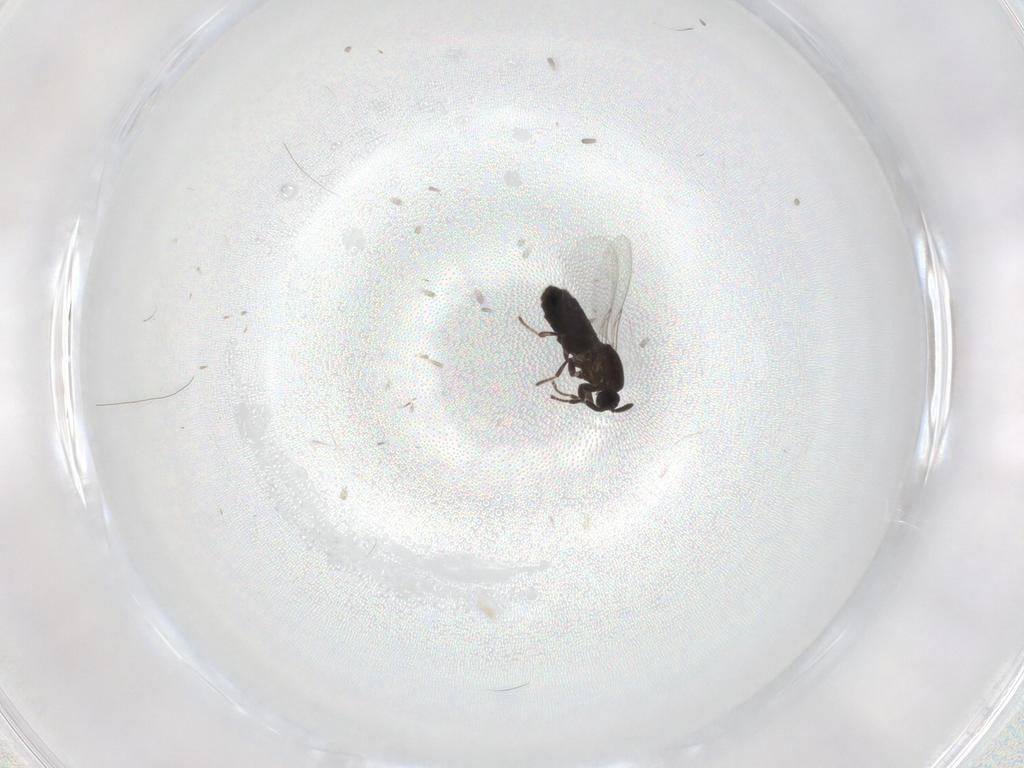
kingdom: Animalia
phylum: Arthropoda
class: Insecta
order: Diptera
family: Scatopsidae
